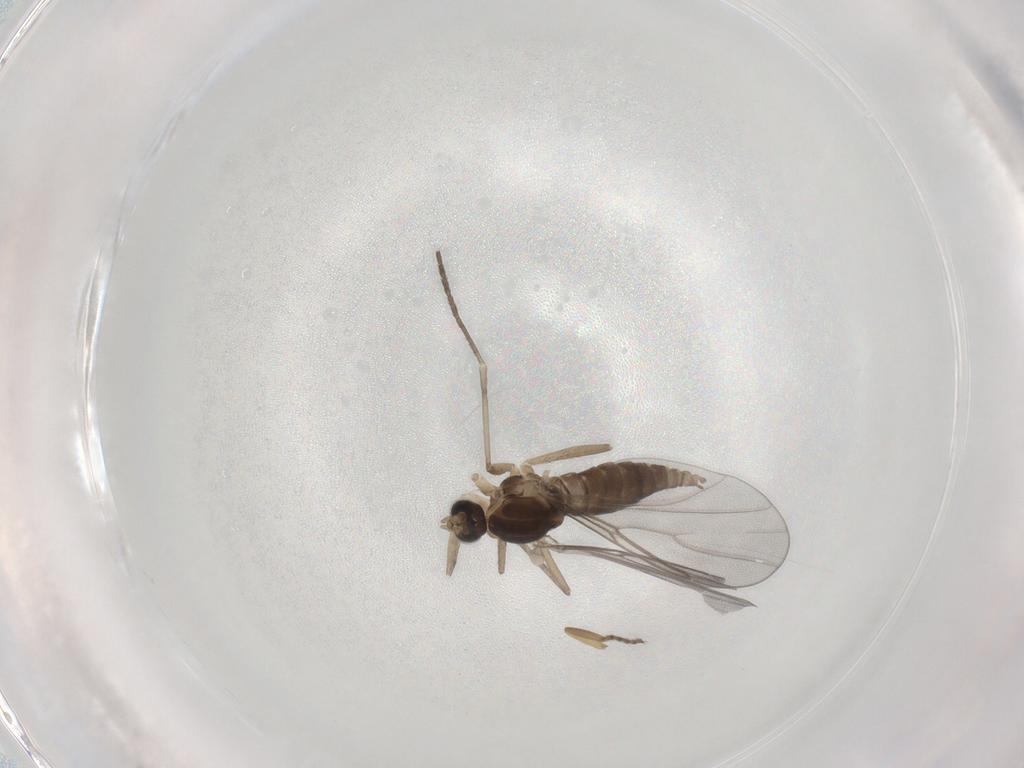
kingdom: Animalia
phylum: Arthropoda
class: Insecta
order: Diptera
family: Cecidomyiidae
